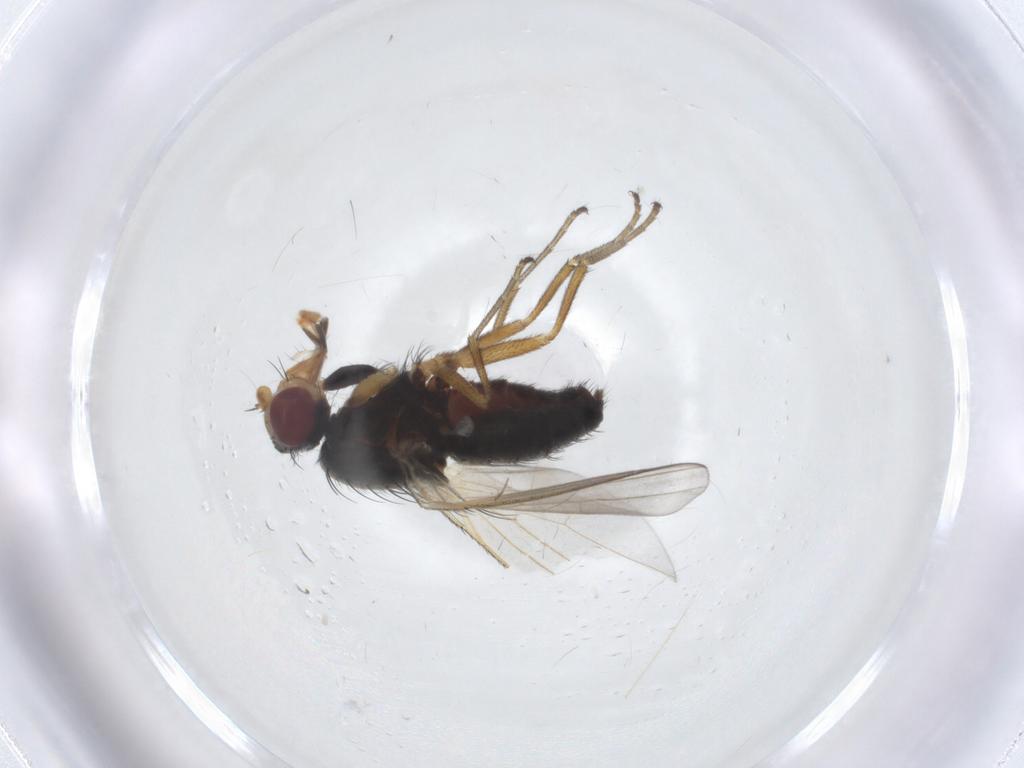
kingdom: Animalia
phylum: Arthropoda
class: Insecta
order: Diptera
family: Sphaeroceridae
